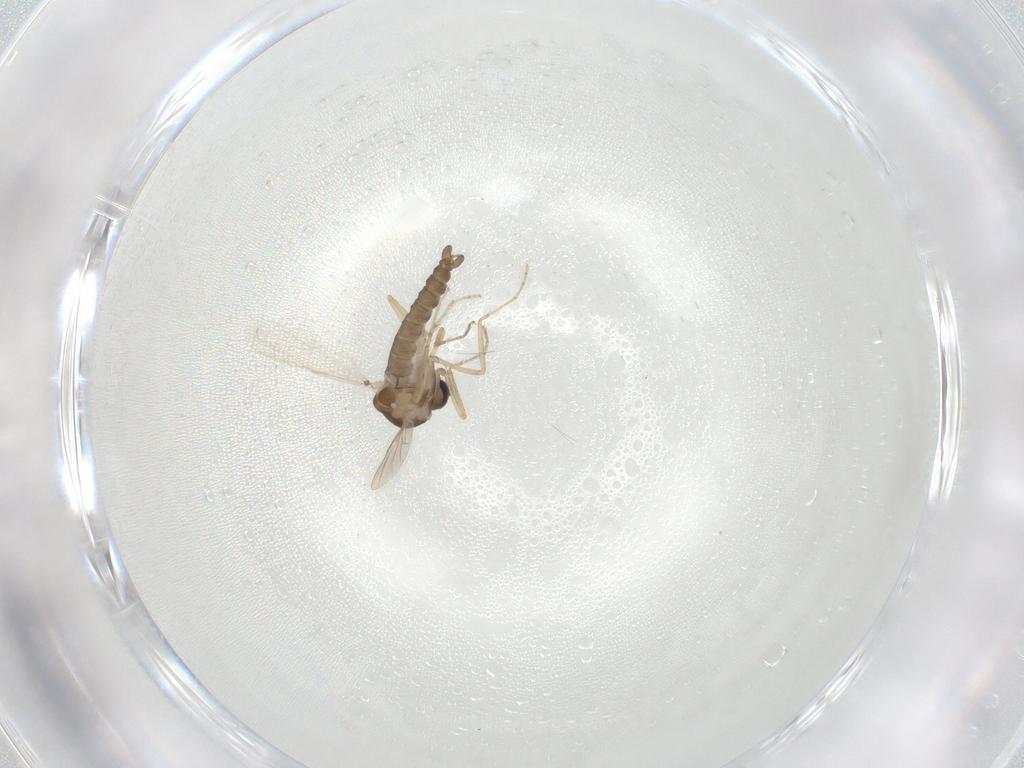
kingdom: Animalia
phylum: Arthropoda
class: Insecta
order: Diptera
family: Ceratopogonidae
